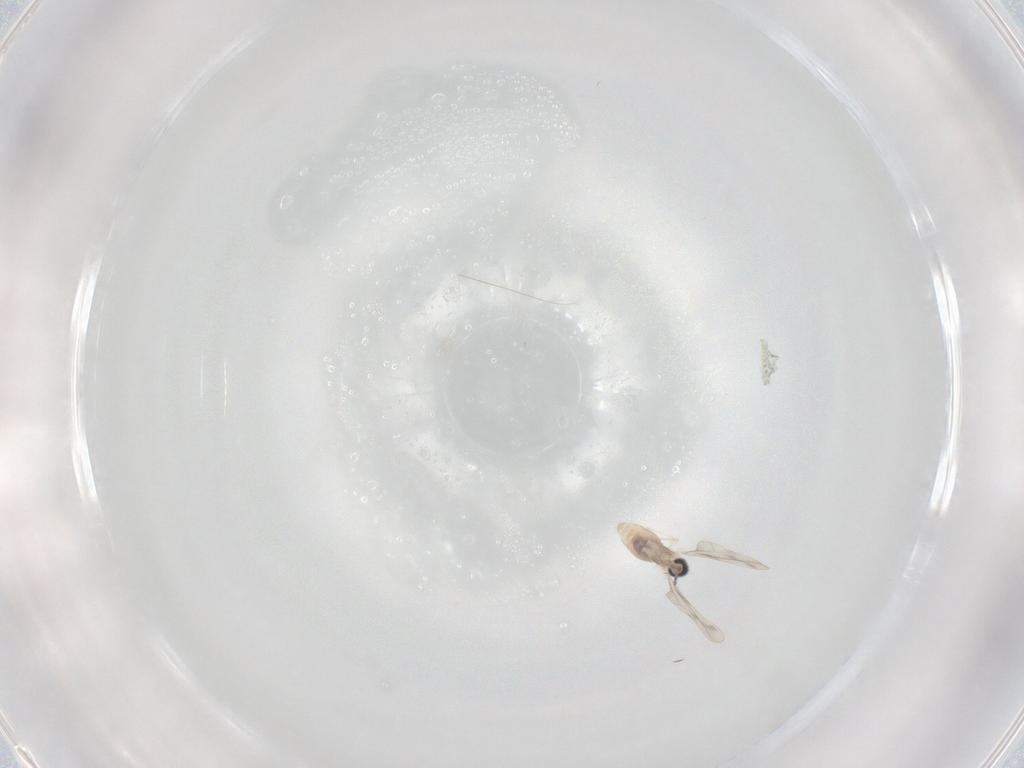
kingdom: Animalia
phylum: Arthropoda
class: Insecta
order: Diptera
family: Sciaridae
